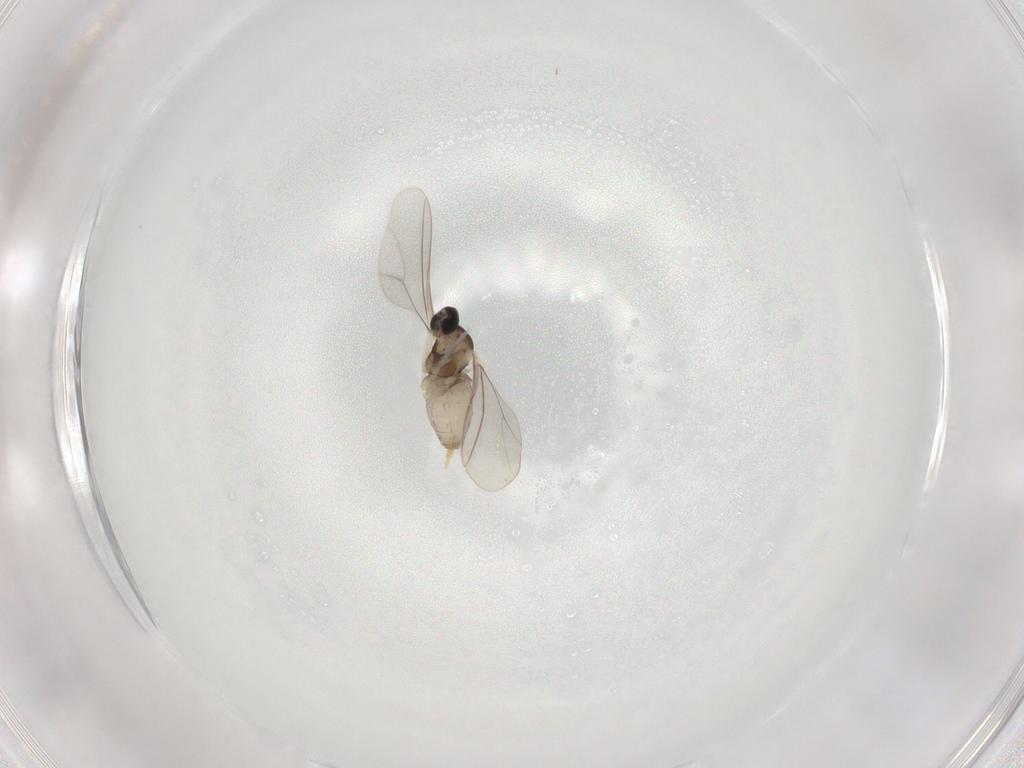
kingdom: Animalia
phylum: Arthropoda
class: Insecta
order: Diptera
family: Cecidomyiidae
